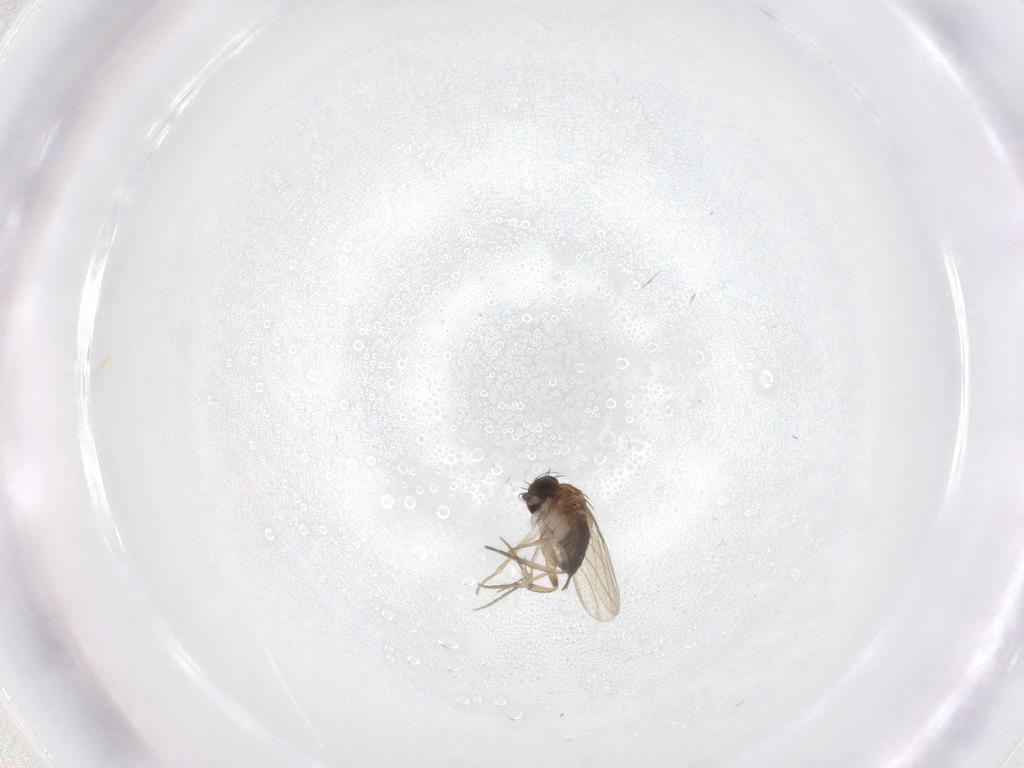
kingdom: Animalia
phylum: Arthropoda
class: Insecta
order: Diptera
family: Phoridae
